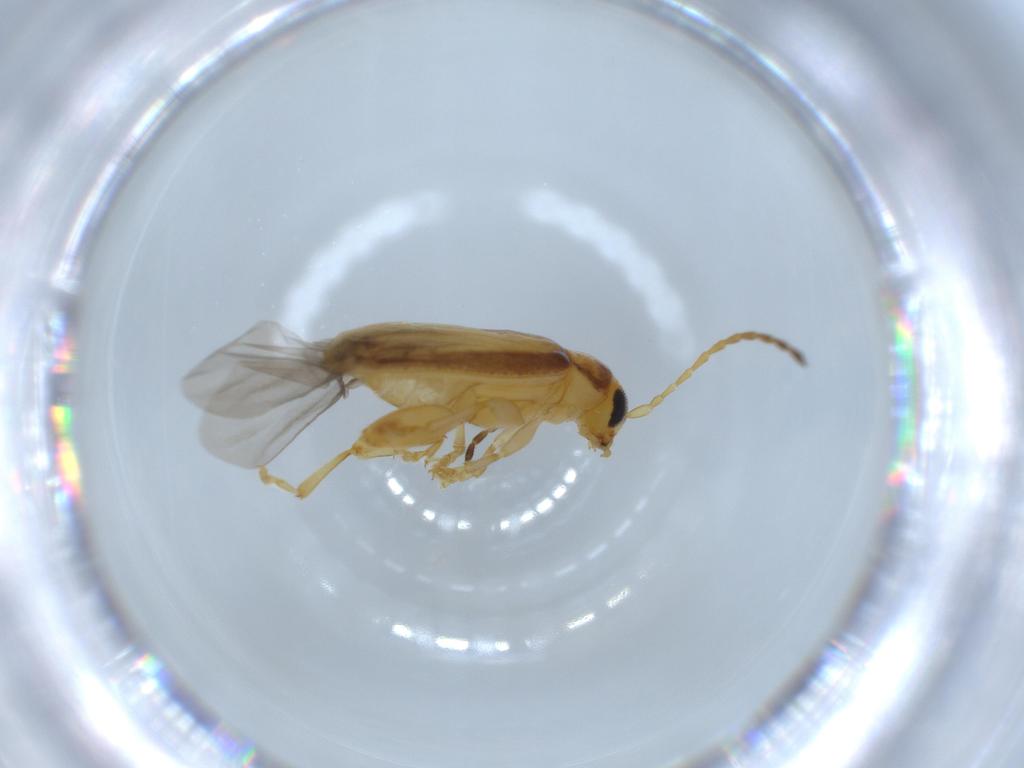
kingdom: Animalia
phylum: Arthropoda
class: Insecta
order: Coleoptera
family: Chrysomelidae
